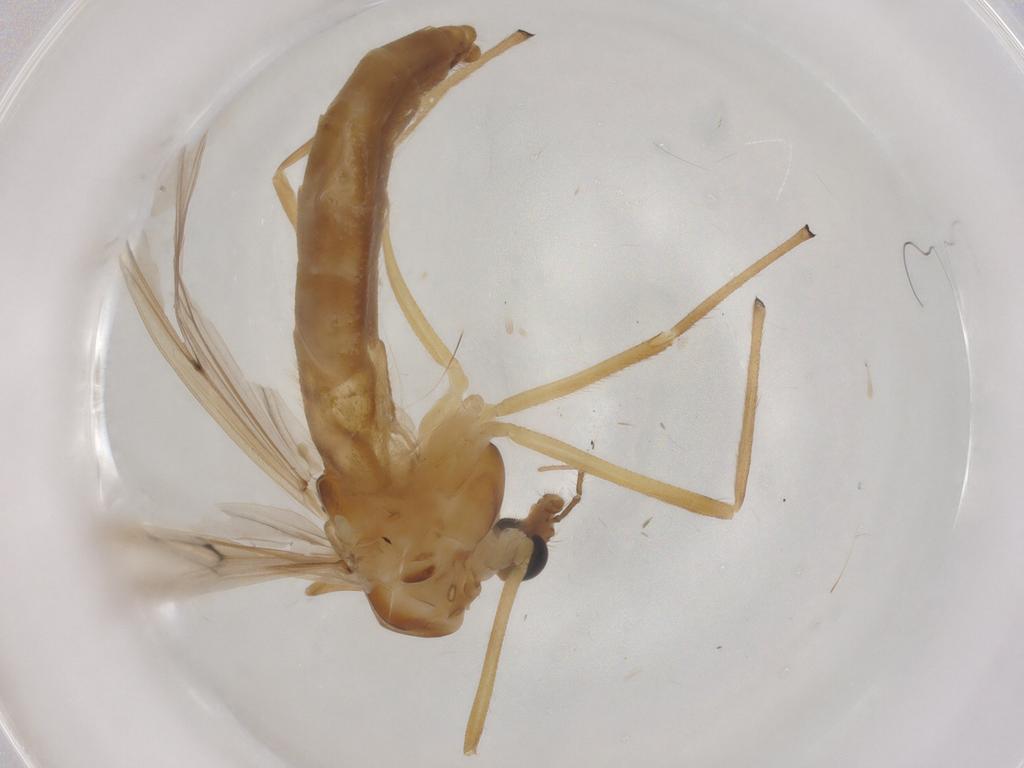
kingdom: Animalia
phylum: Arthropoda
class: Insecta
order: Diptera
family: Chironomidae
